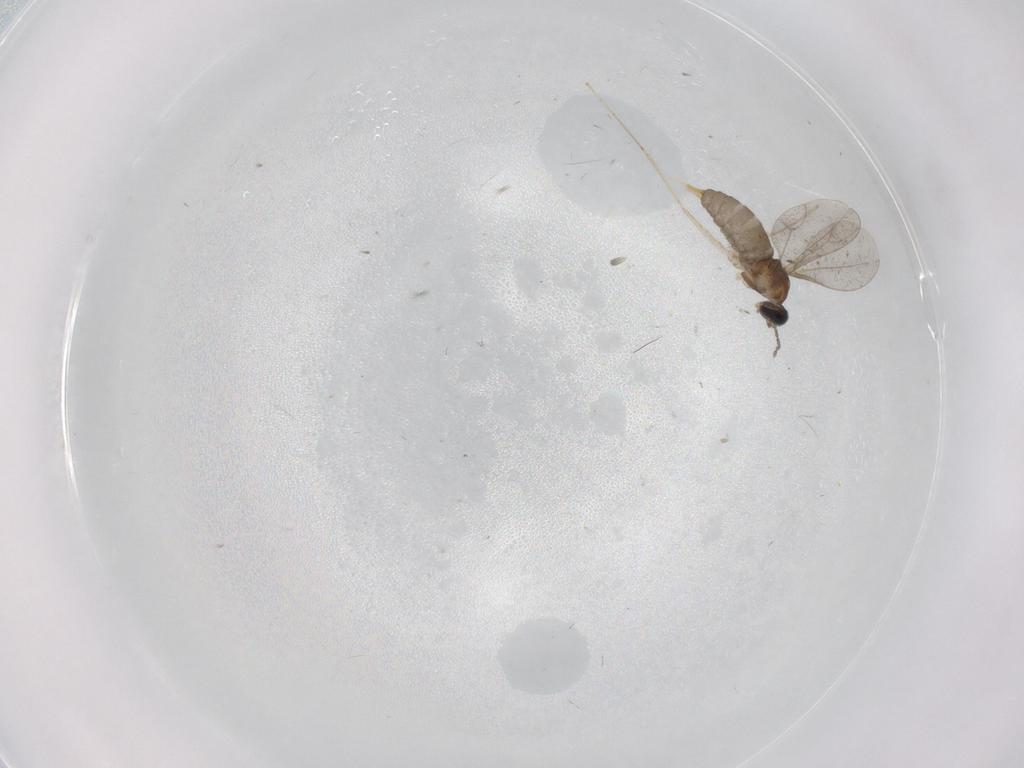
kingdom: Animalia
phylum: Arthropoda
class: Insecta
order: Diptera
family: Cecidomyiidae
